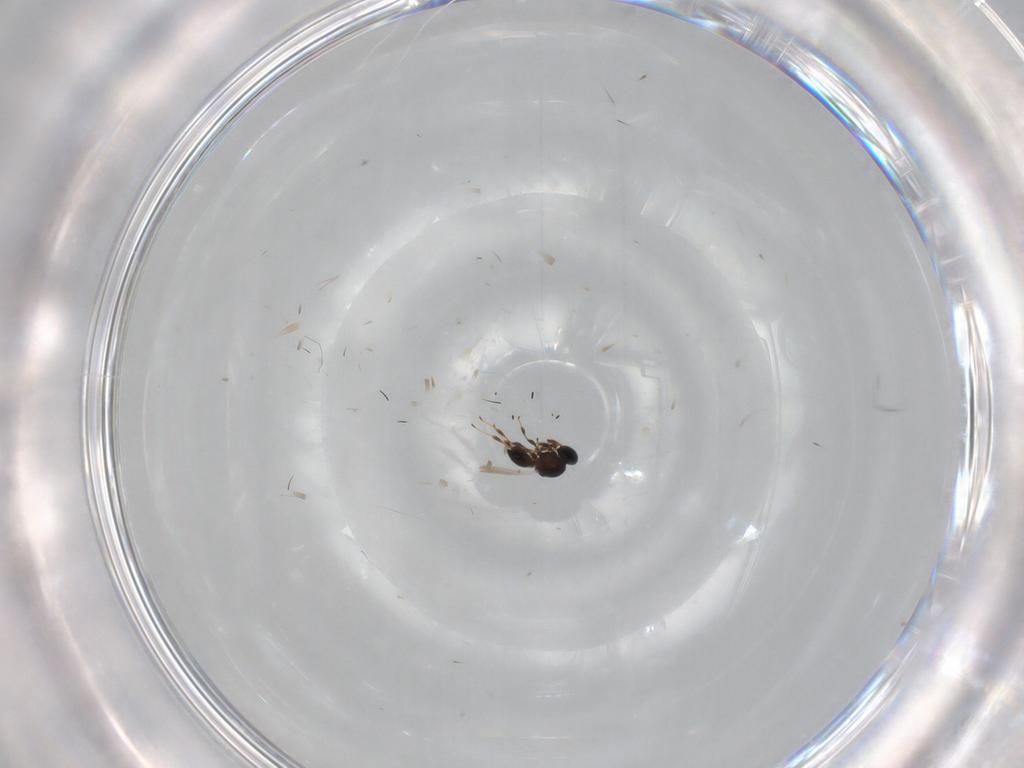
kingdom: Animalia
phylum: Arthropoda
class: Insecta
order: Hymenoptera
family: Platygastridae
